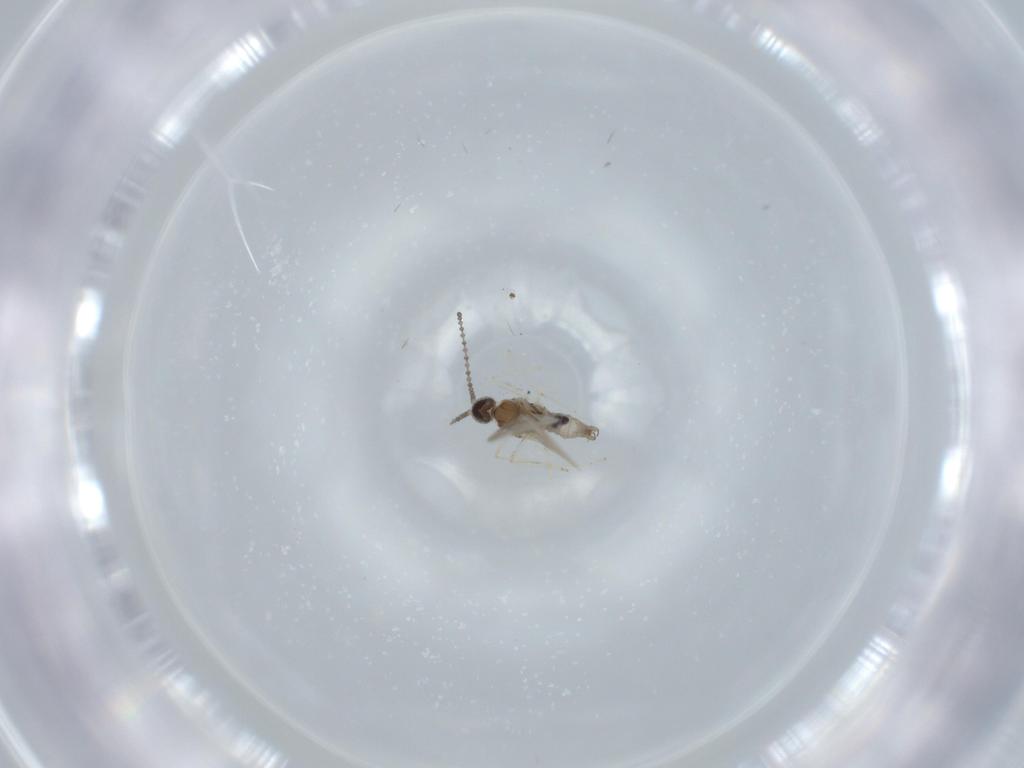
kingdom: Animalia
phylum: Arthropoda
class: Insecta
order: Diptera
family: Cecidomyiidae
